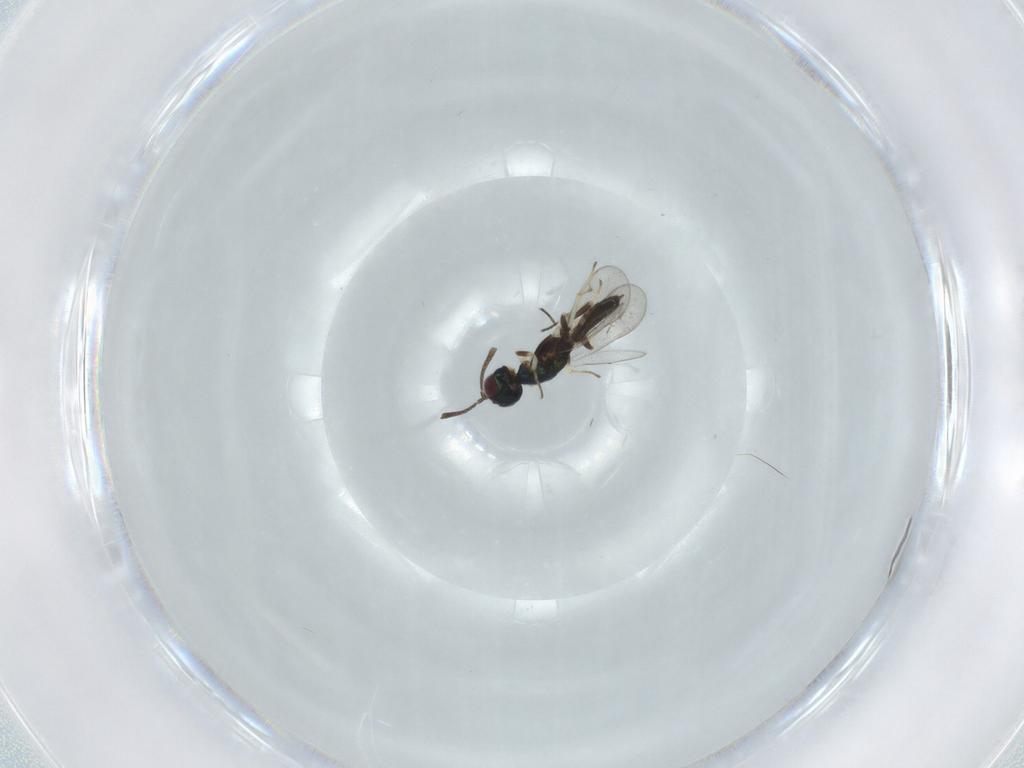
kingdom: Animalia
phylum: Arthropoda
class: Insecta
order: Hymenoptera
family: Eupelmidae
